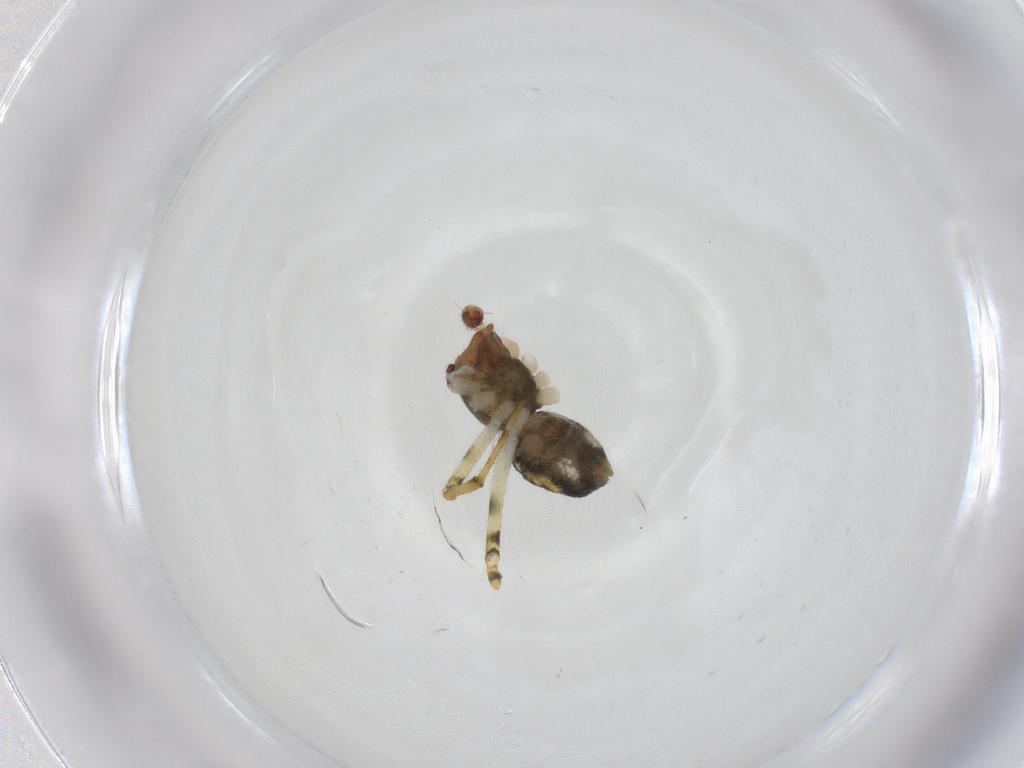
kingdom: Animalia
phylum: Arthropoda
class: Arachnida
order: Araneae
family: Theridiidae
